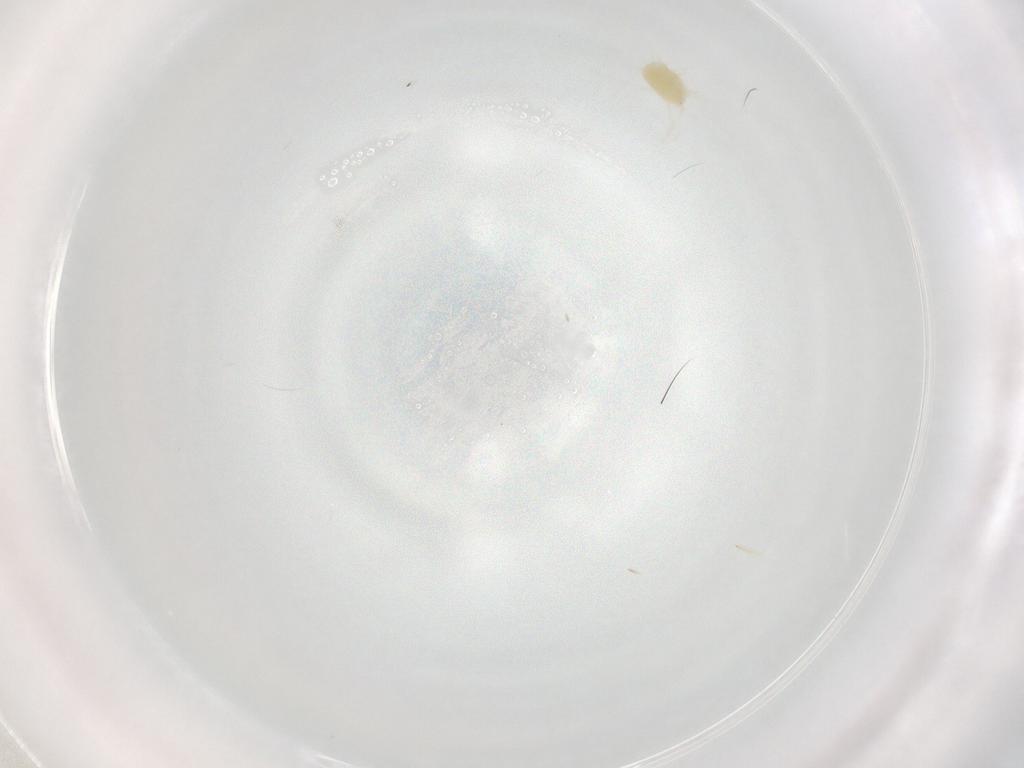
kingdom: Animalia
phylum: Arthropoda
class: Arachnida
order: Trombidiformes
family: Tetranychidae
